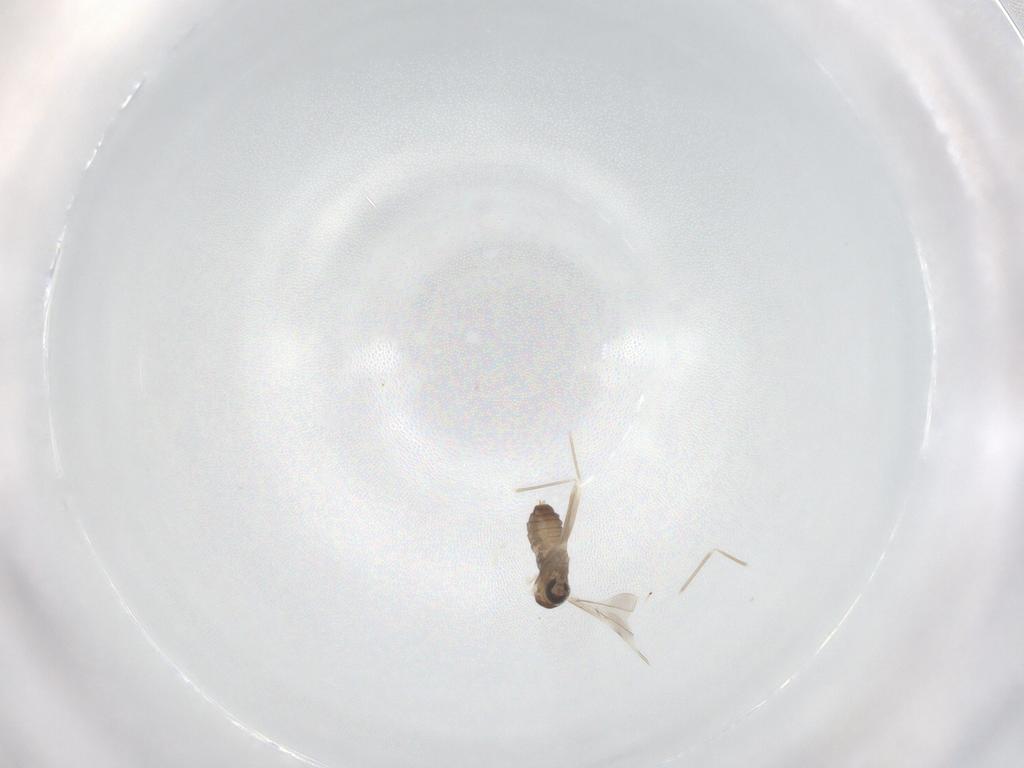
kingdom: Animalia
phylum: Arthropoda
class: Insecta
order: Diptera
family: Cecidomyiidae
